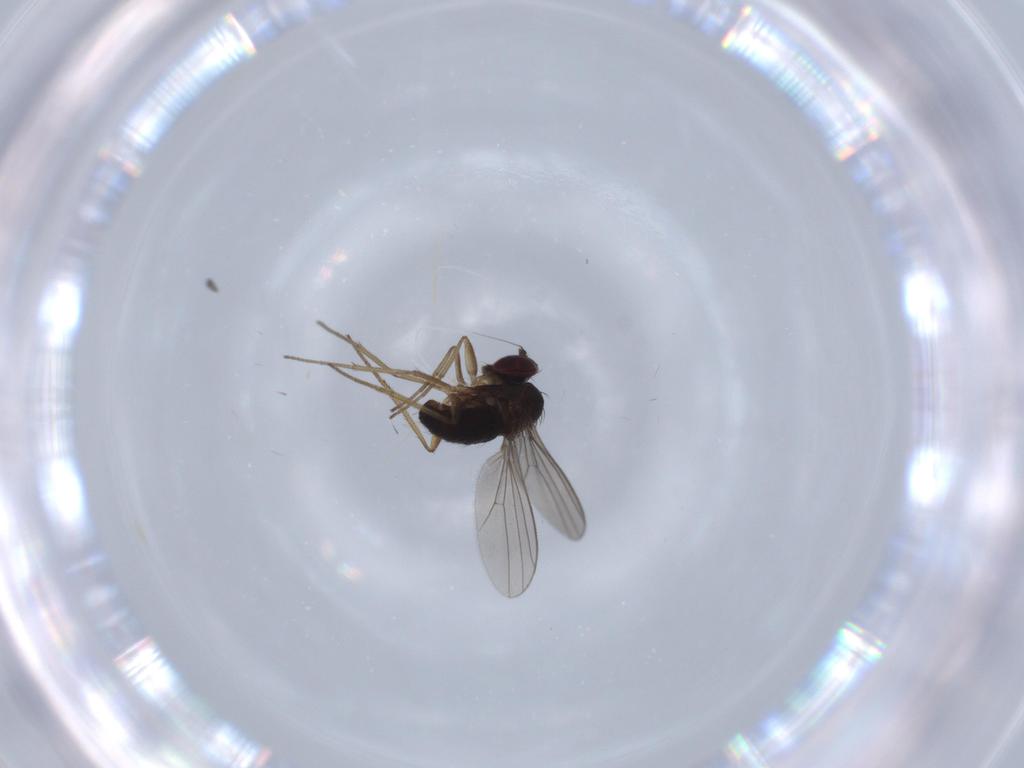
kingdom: Animalia
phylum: Arthropoda
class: Insecta
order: Diptera
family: Dolichopodidae
